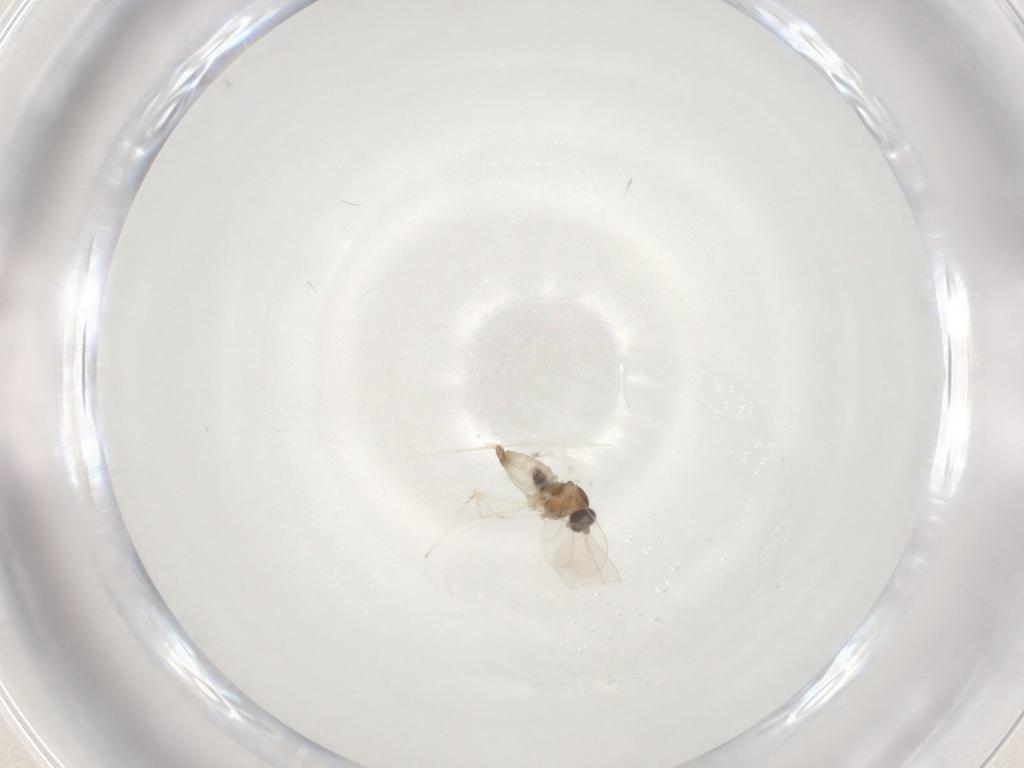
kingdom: Animalia
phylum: Arthropoda
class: Insecta
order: Diptera
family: Cecidomyiidae
